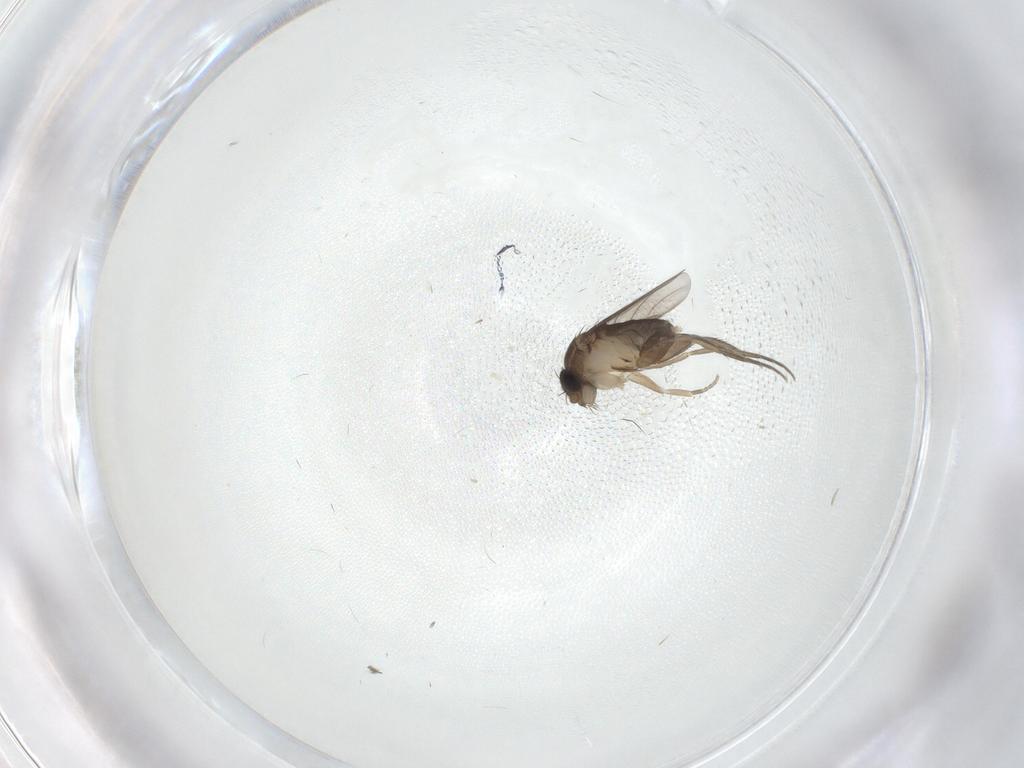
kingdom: Animalia
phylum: Arthropoda
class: Insecta
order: Diptera
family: Phoridae
